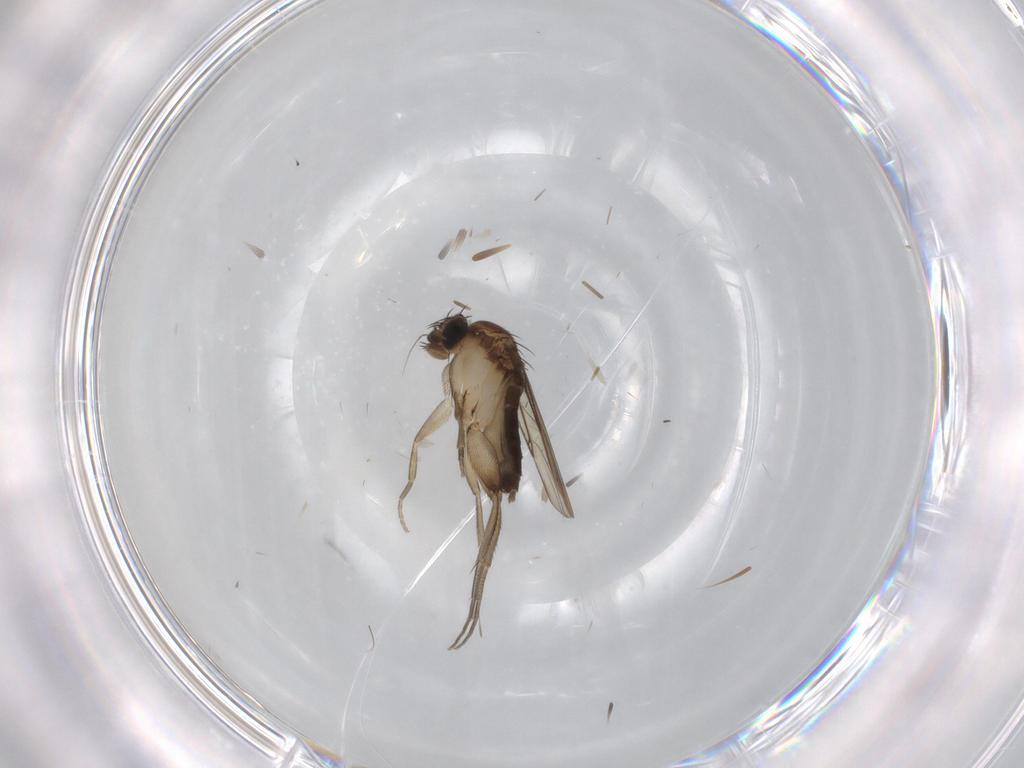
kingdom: Animalia
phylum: Arthropoda
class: Insecta
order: Diptera
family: Phoridae
